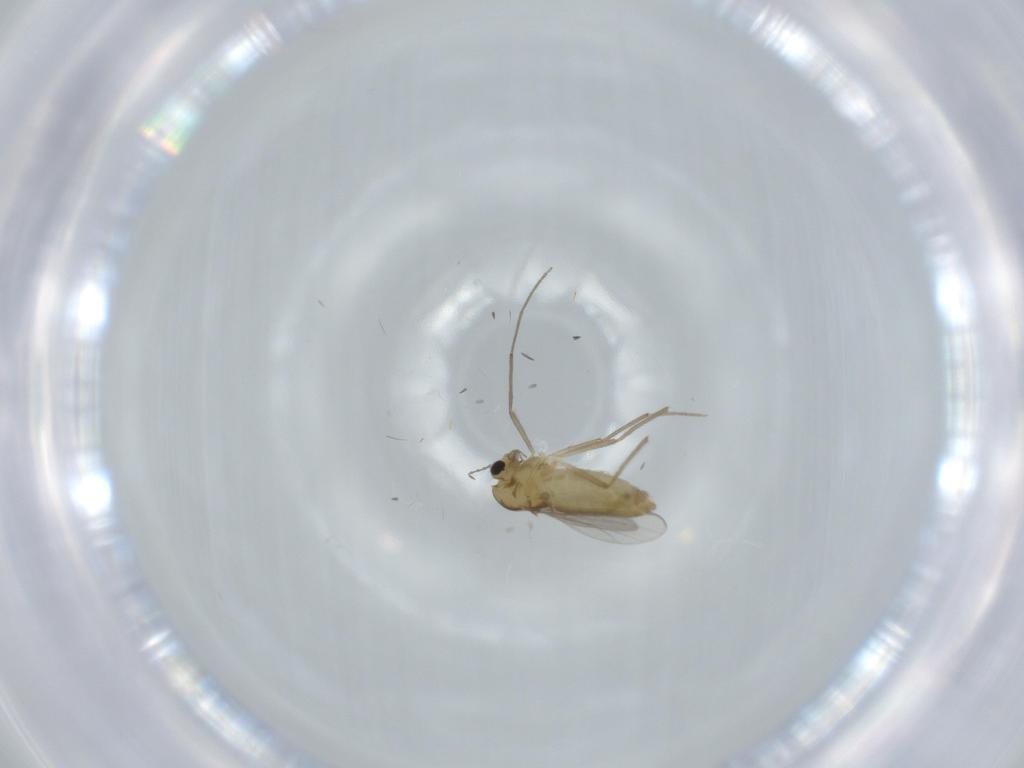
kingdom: Animalia
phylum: Arthropoda
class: Insecta
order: Diptera
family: Chironomidae
